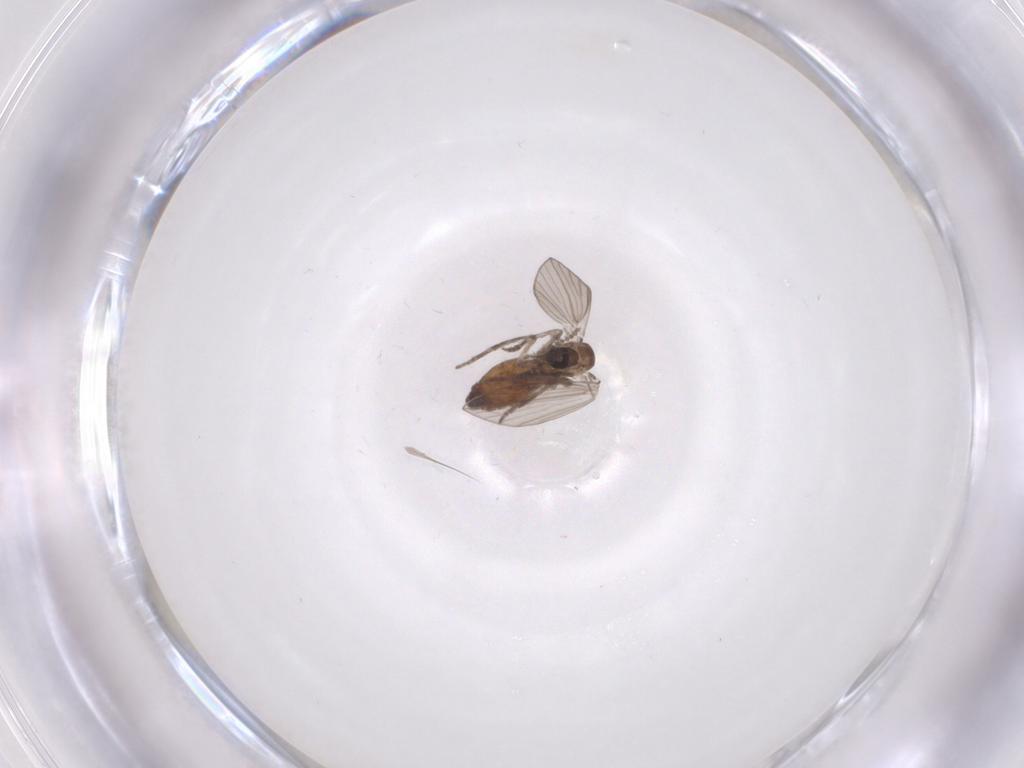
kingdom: Animalia
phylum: Arthropoda
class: Insecta
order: Diptera
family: Psychodidae
